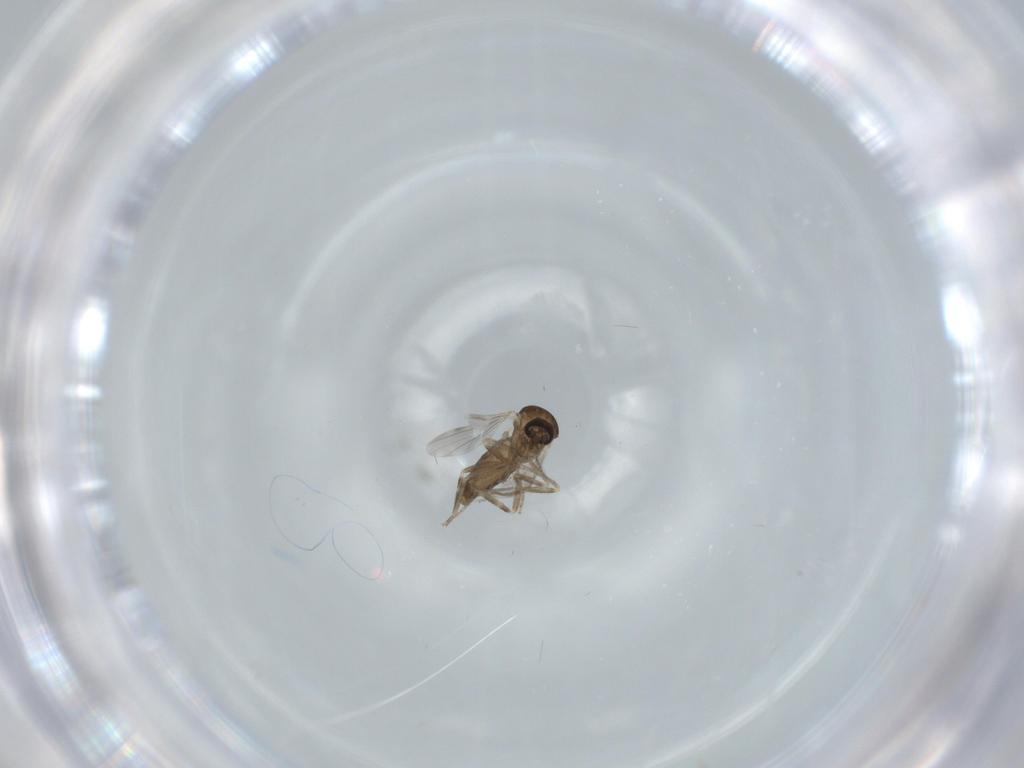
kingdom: Animalia
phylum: Arthropoda
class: Insecta
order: Diptera
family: Ceratopogonidae
